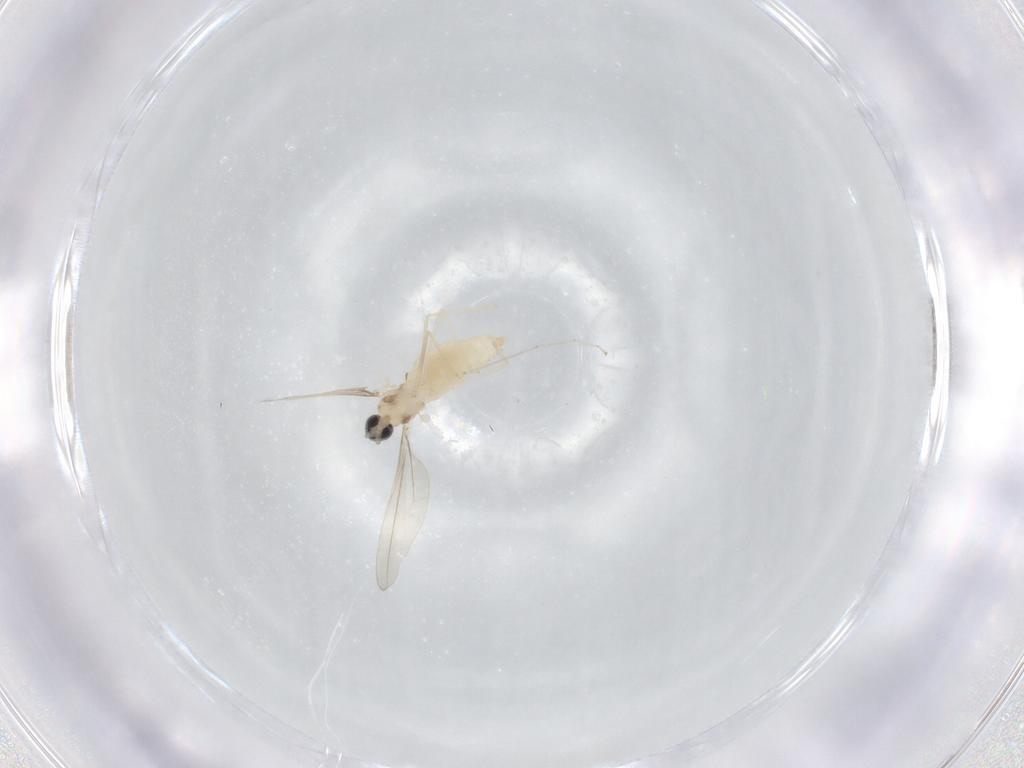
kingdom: Animalia
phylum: Arthropoda
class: Insecta
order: Diptera
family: Cecidomyiidae
